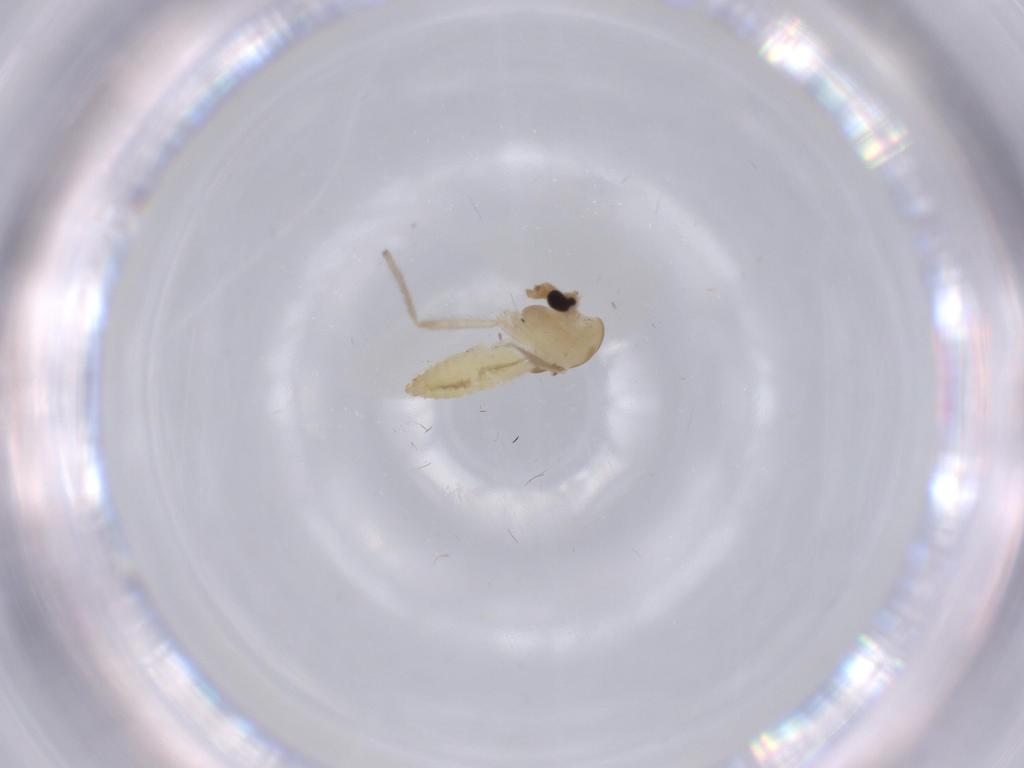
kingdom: Animalia
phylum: Arthropoda
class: Insecta
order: Diptera
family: Chironomidae
